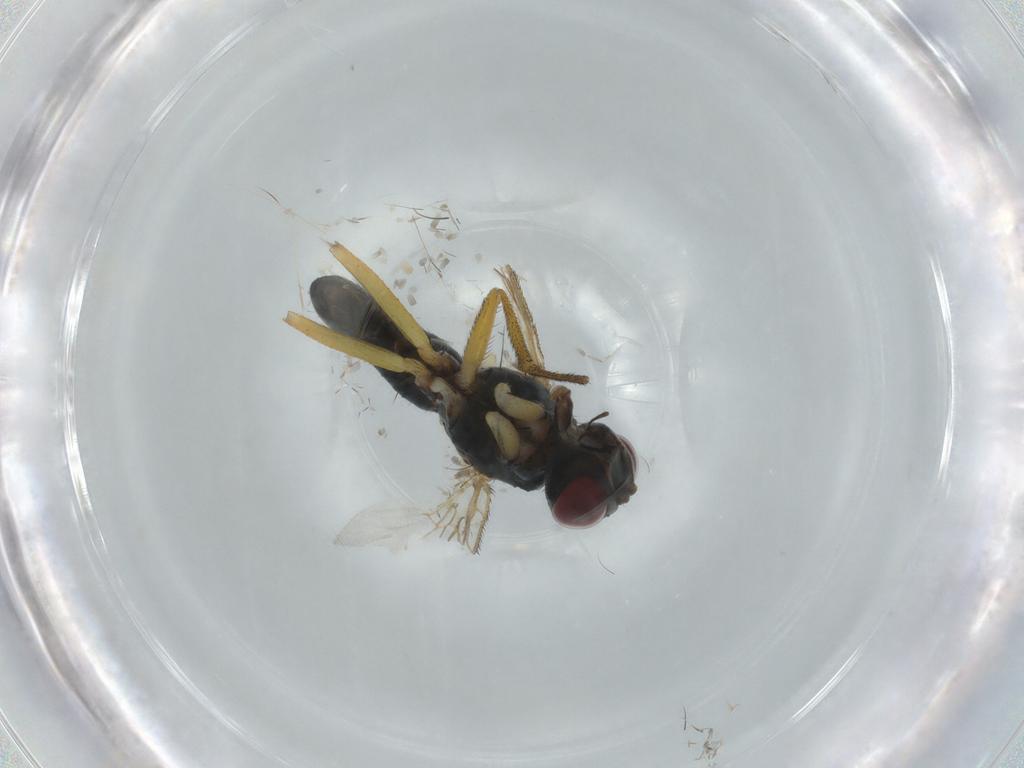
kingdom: Animalia
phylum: Arthropoda
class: Insecta
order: Diptera
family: Muscidae
